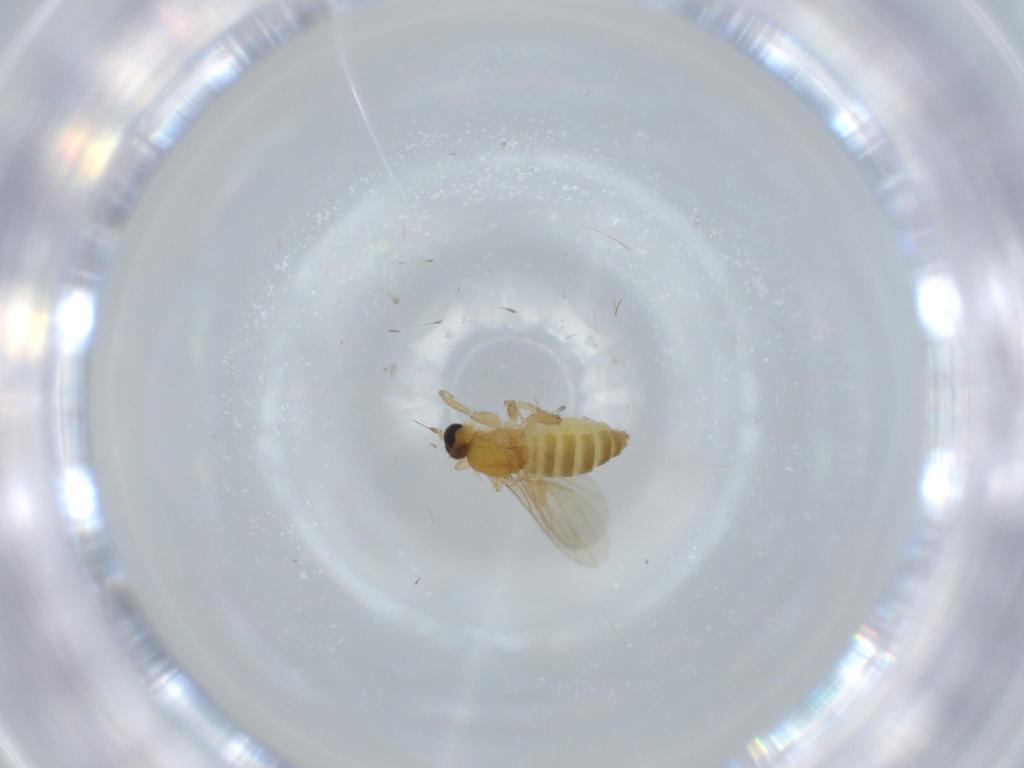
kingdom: Animalia
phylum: Arthropoda
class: Insecta
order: Diptera
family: Hybotidae
